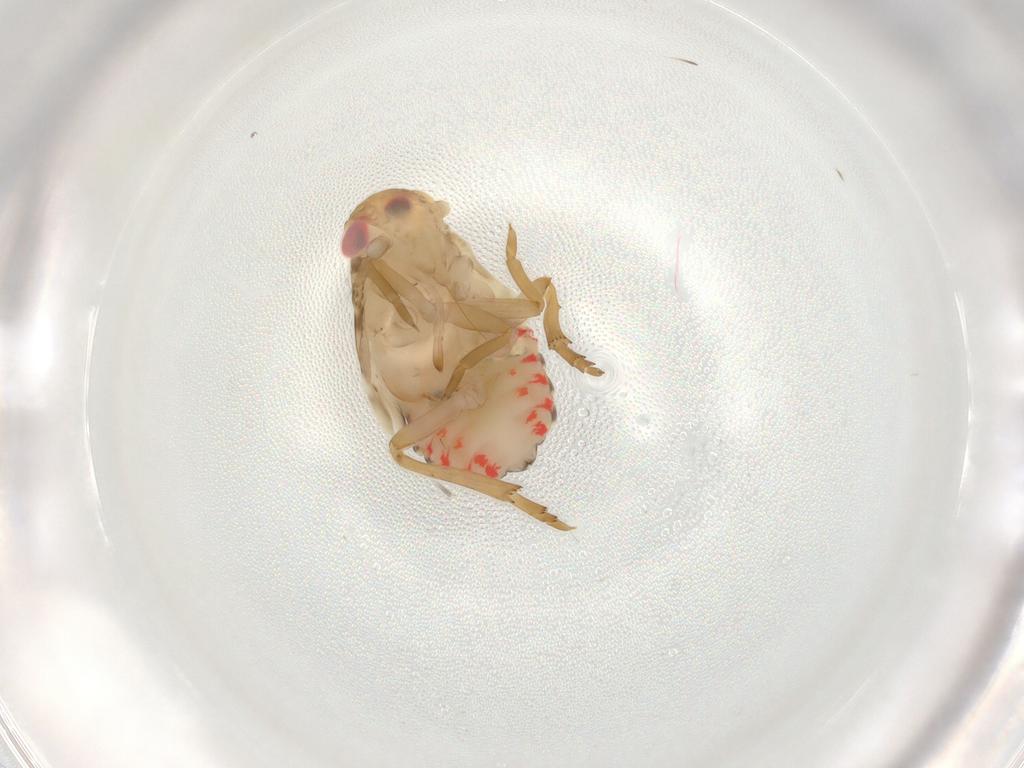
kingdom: Animalia
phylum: Arthropoda
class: Insecta
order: Hemiptera
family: Achilidae
